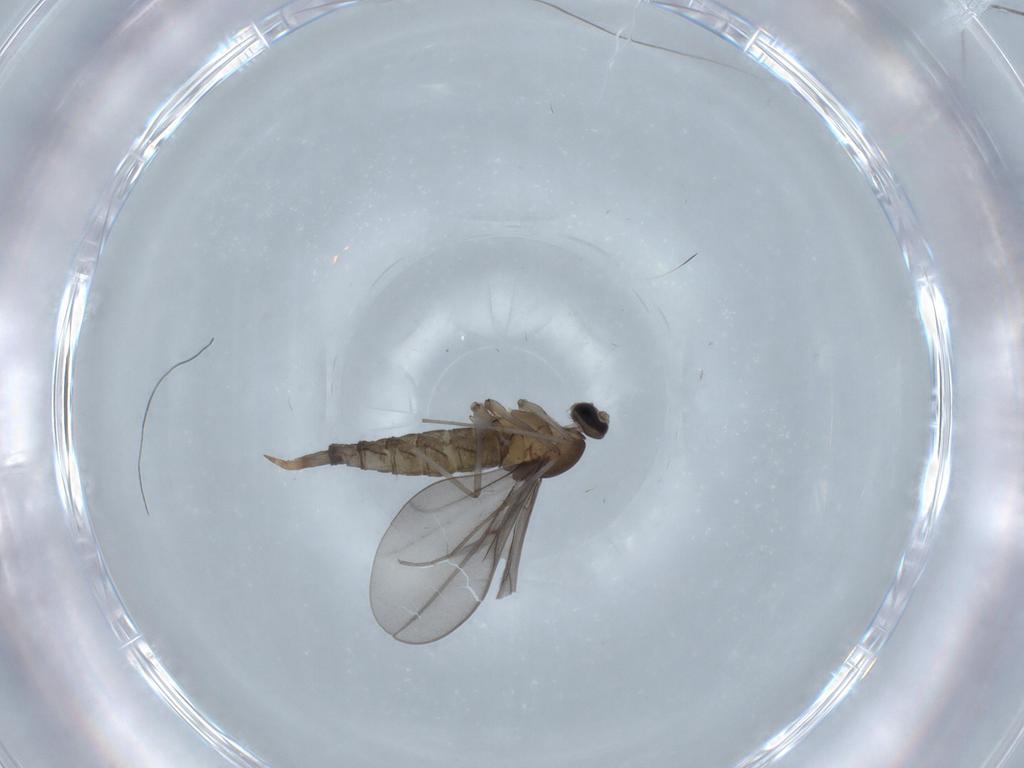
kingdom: Animalia
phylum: Arthropoda
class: Insecta
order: Diptera
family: Cecidomyiidae
